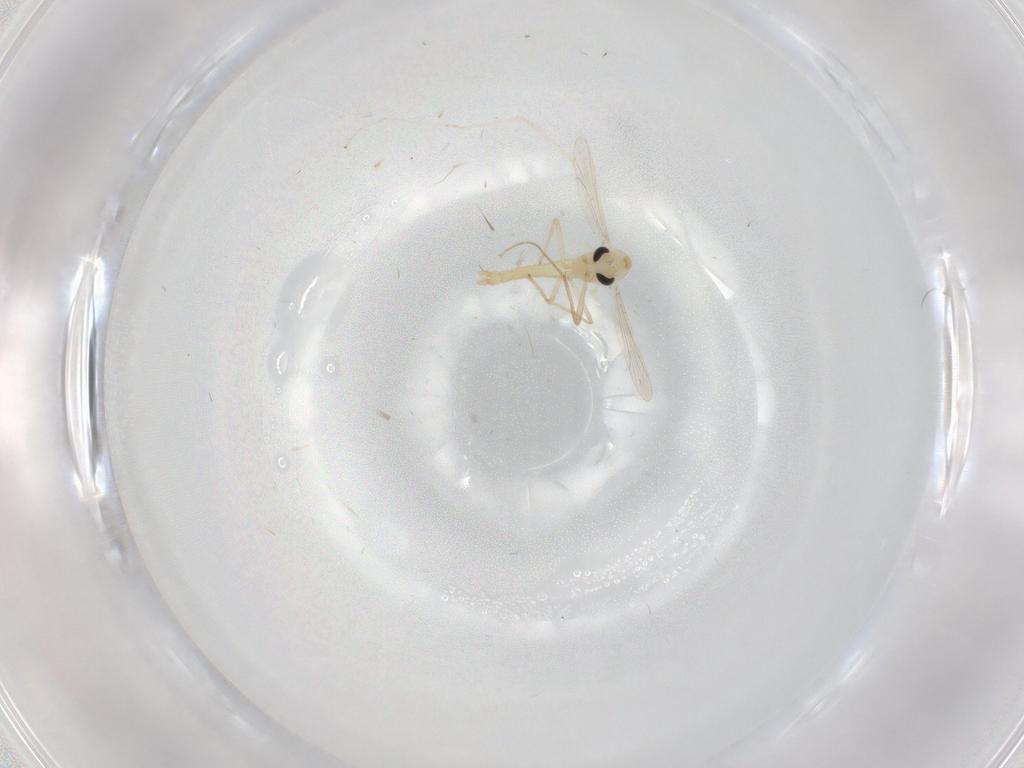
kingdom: Animalia
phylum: Arthropoda
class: Insecta
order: Diptera
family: Chironomidae
